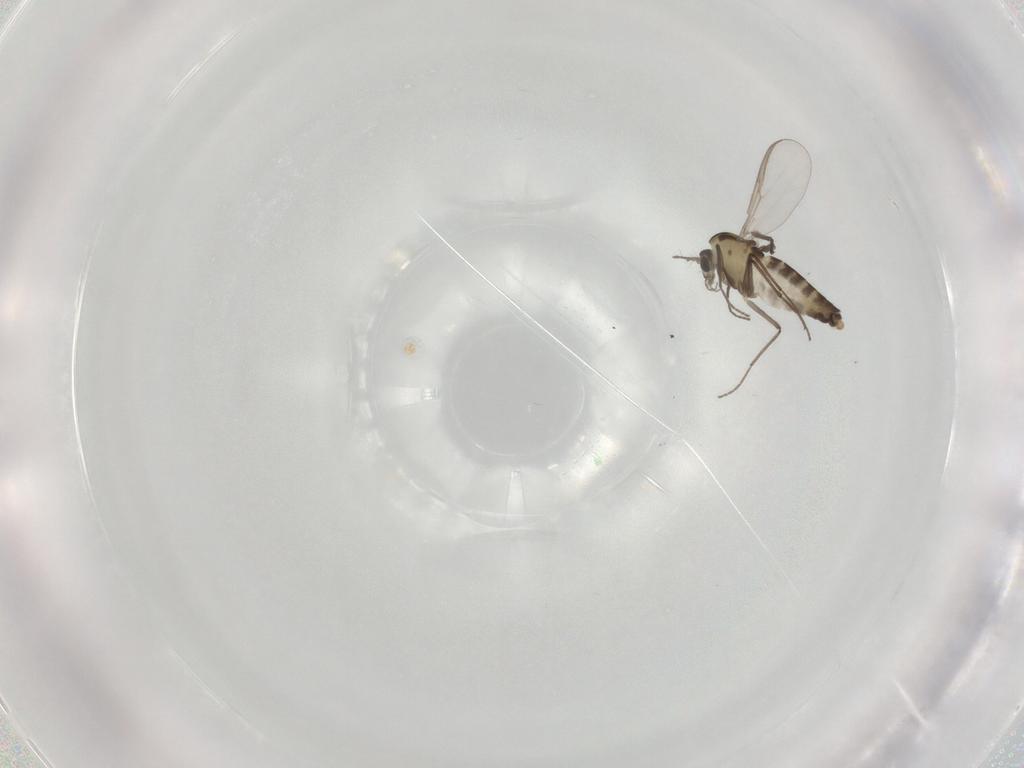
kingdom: Animalia
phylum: Arthropoda
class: Insecta
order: Diptera
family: Chironomidae
